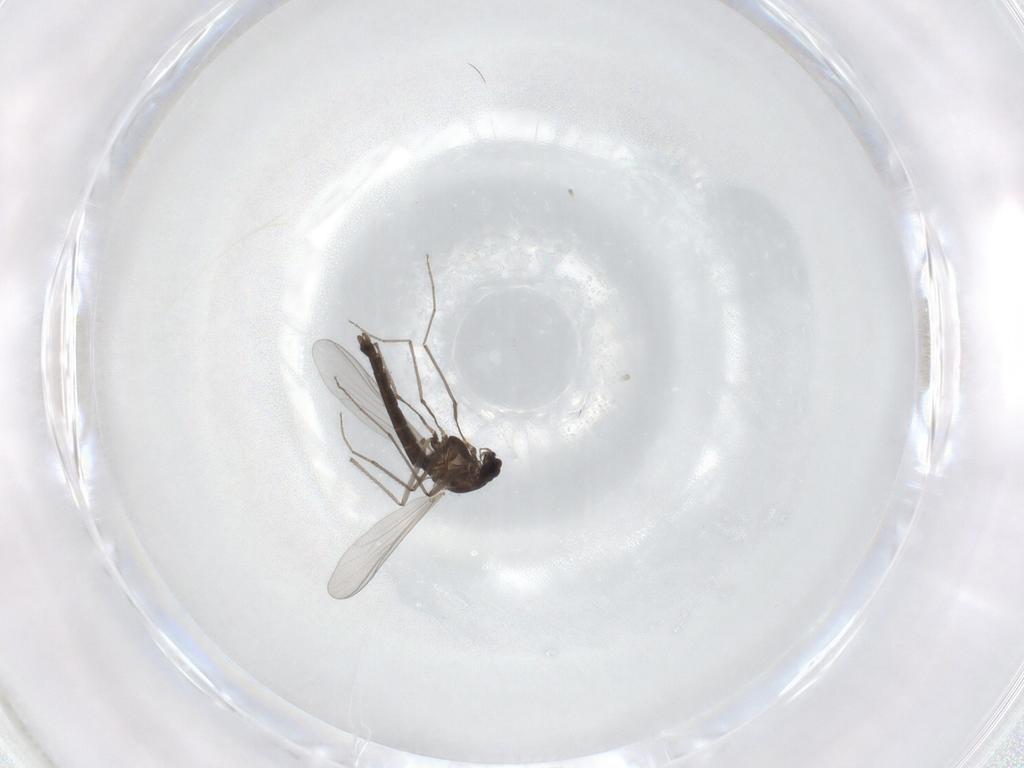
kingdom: Animalia
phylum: Arthropoda
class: Insecta
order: Diptera
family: Chironomidae
